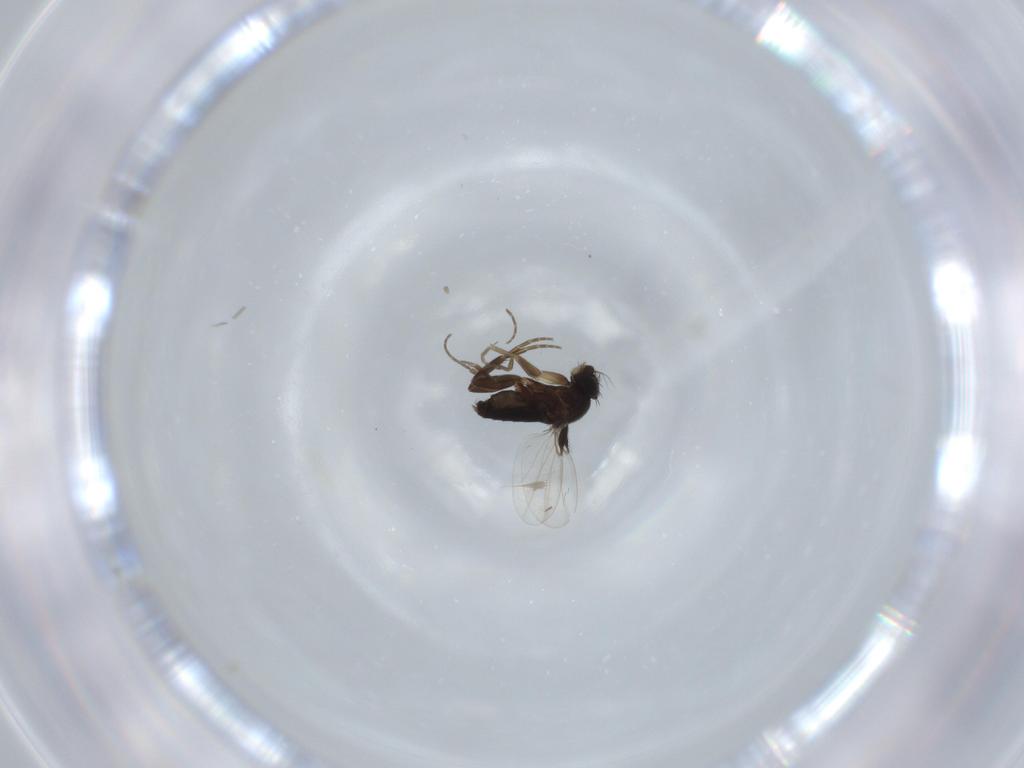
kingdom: Animalia
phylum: Arthropoda
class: Insecta
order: Diptera
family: Phoridae
